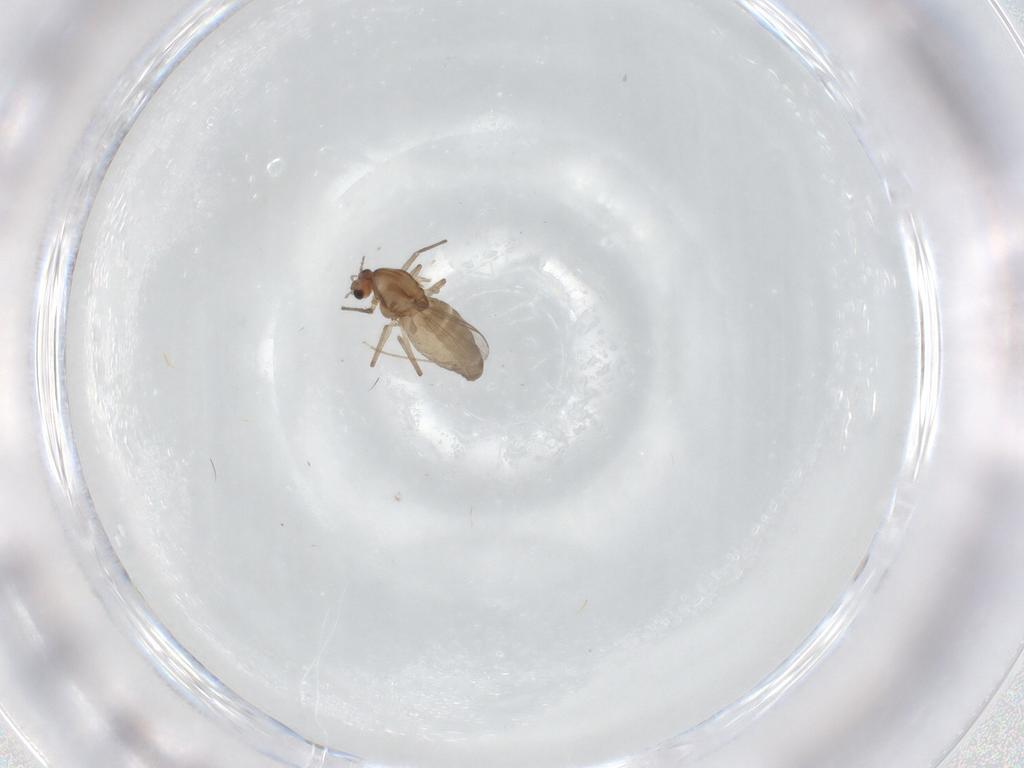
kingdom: Animalia
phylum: Arthropoda
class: Insecta
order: Diptera
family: Chironomidae
